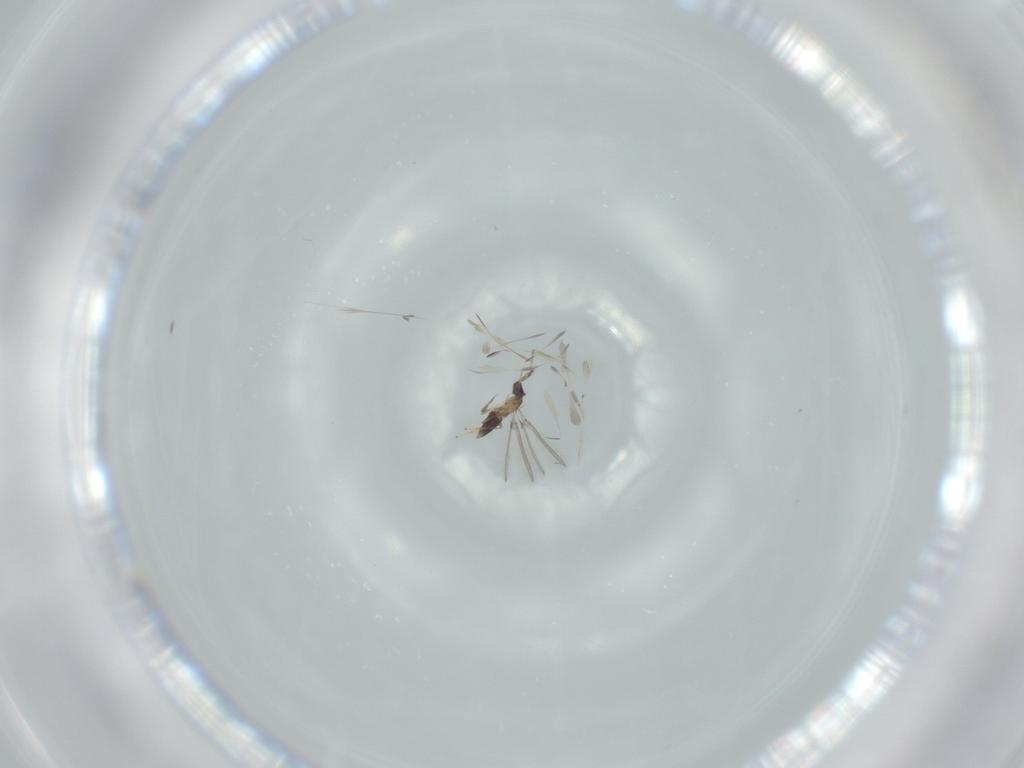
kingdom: Animalia
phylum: Arthropoda
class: Insecta
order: Hymenoptera
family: Mymaridae
